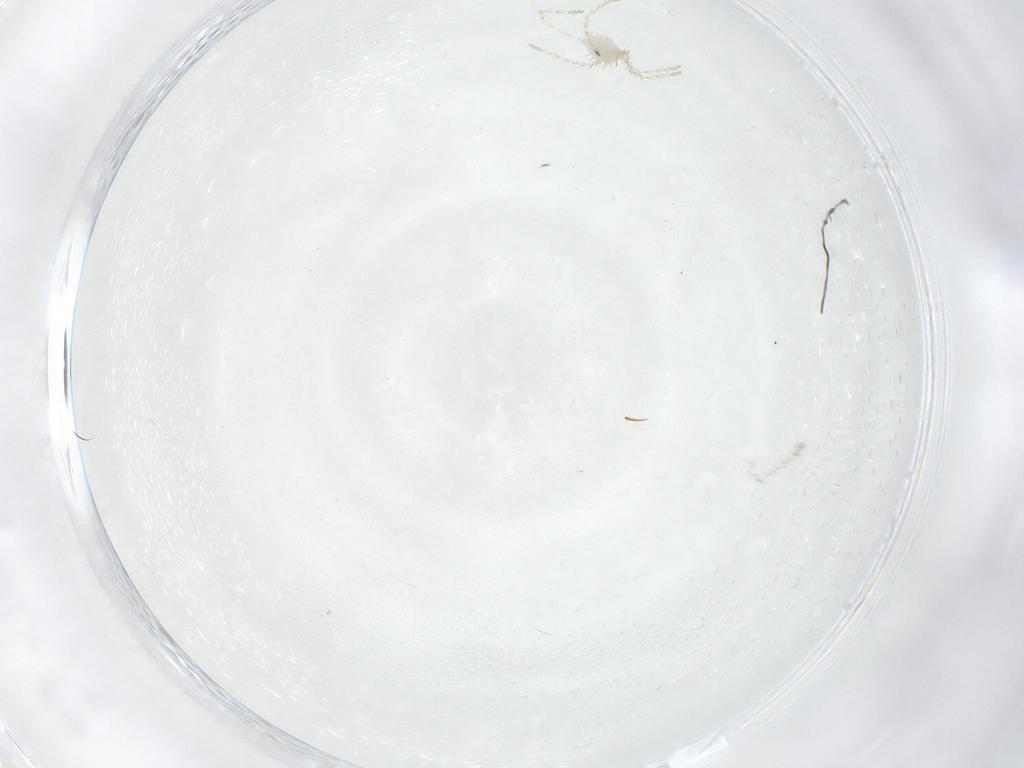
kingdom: Animalia
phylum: Arthropoda
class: Arachnida
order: Trombidiformes
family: Erythraeidae
